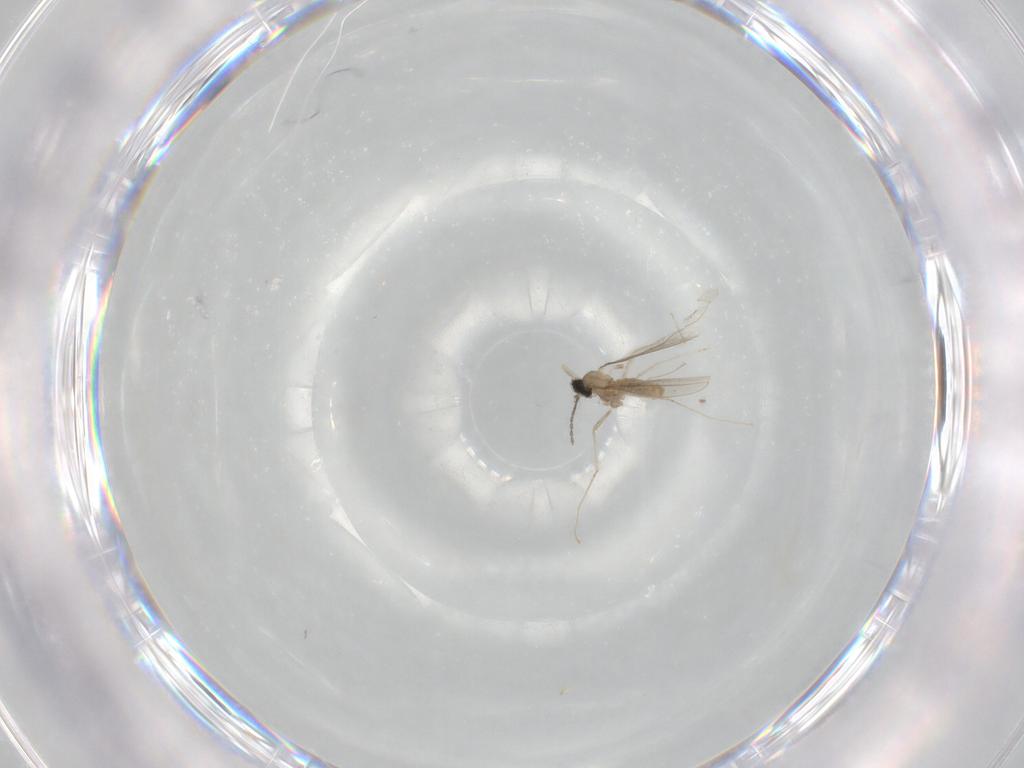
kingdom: Animalia
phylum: Arthropoda
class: Insecta
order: Diptera
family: Cecidomyiidae
